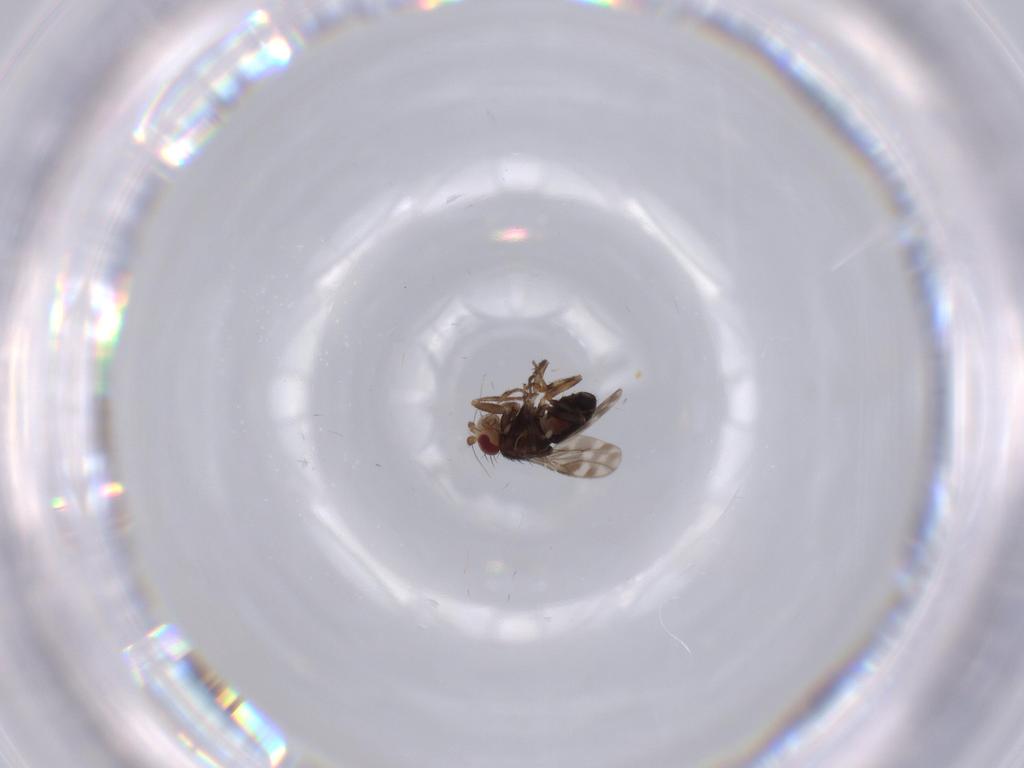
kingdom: Animalia
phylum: Arthropoda
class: Insecta
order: Diptera
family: Sphaeroceridae
